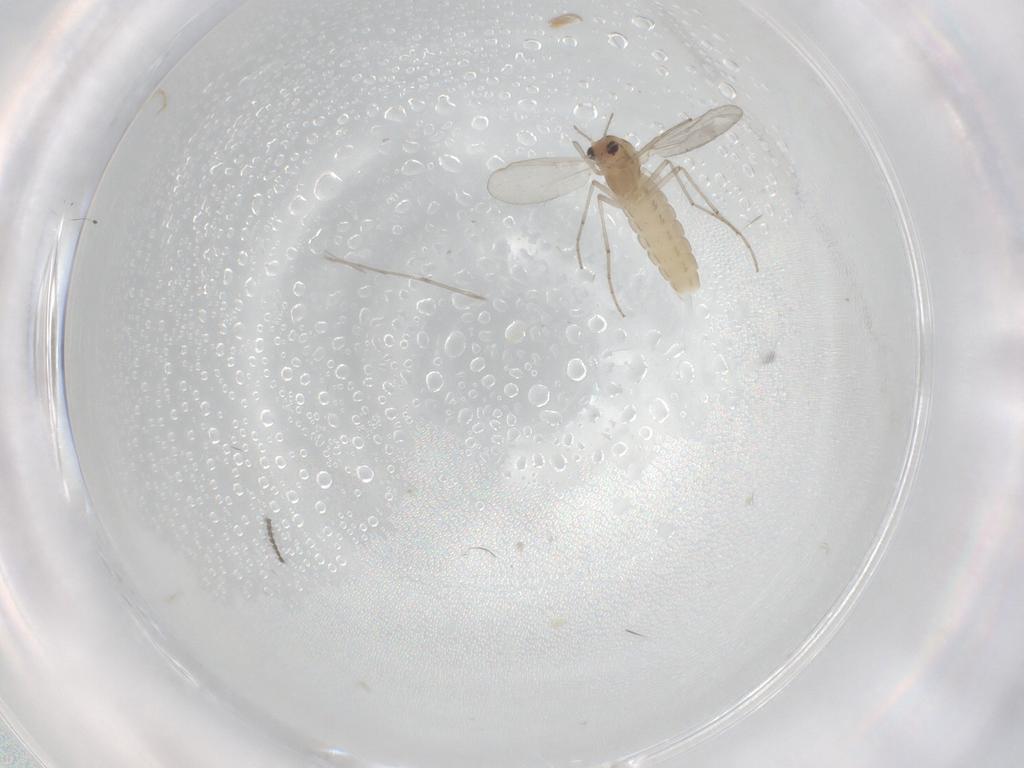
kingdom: Animalia
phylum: Arthropoda
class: Insecta
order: Diptera
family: Chironomidae
